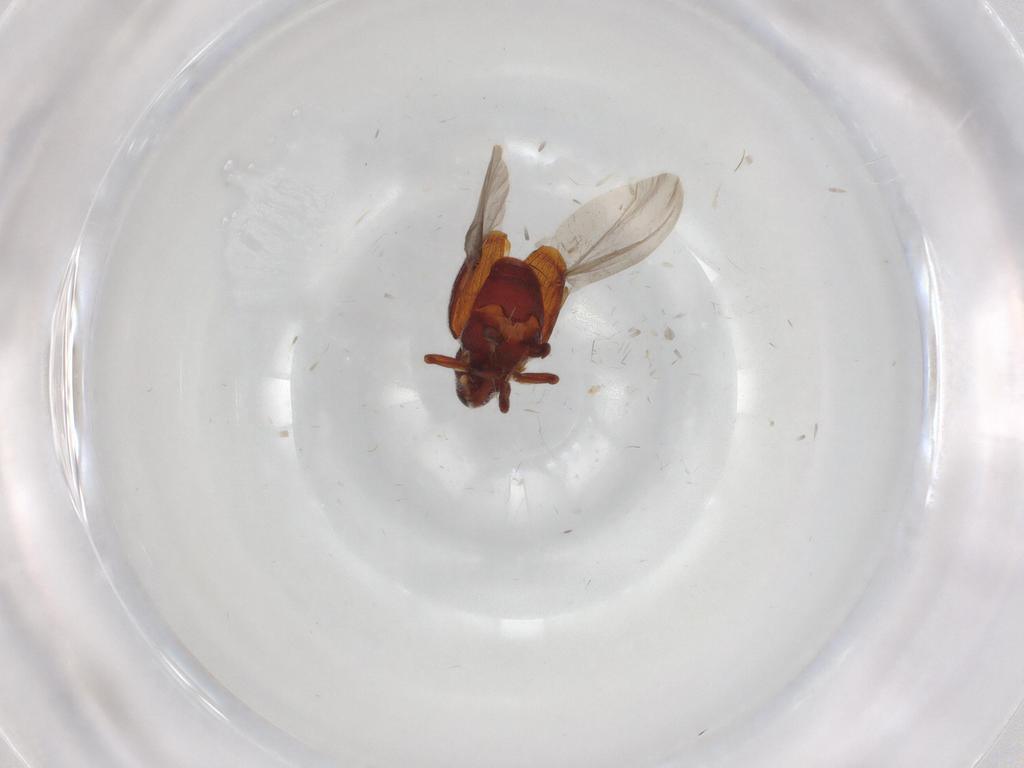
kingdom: Animalia
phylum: Arthropoda
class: Insecta
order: Coleoptera
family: Curculionidae
